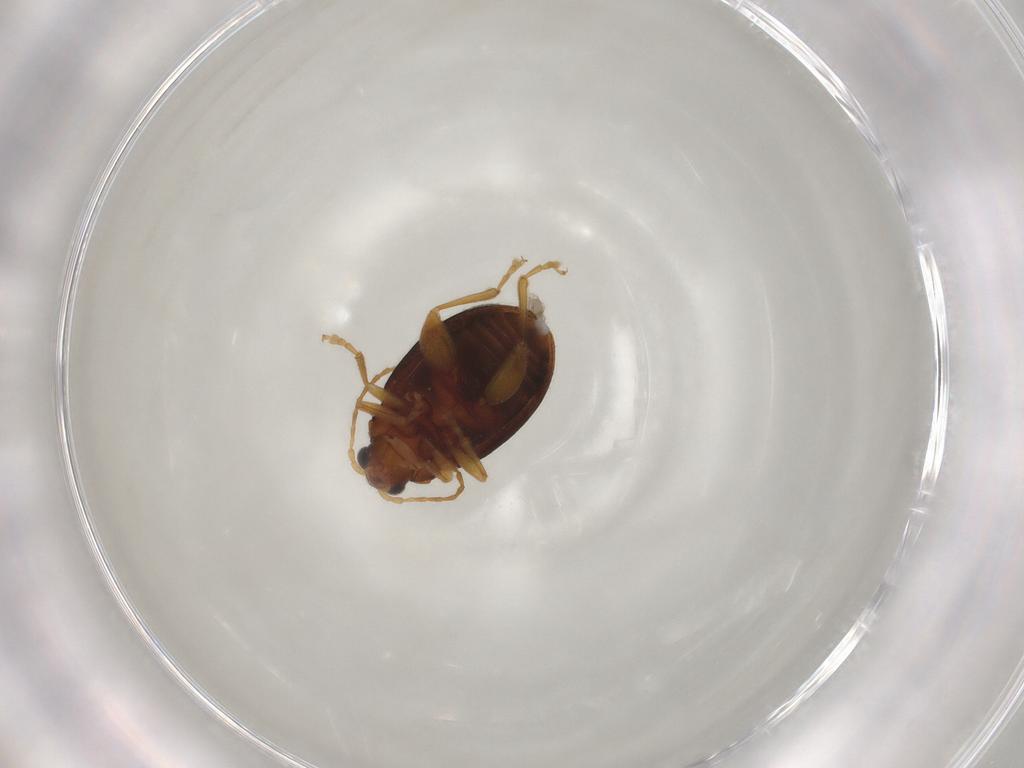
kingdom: Animalia
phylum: Arthropoda
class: Insecta
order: Coleoptera
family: Chrysomelidae
